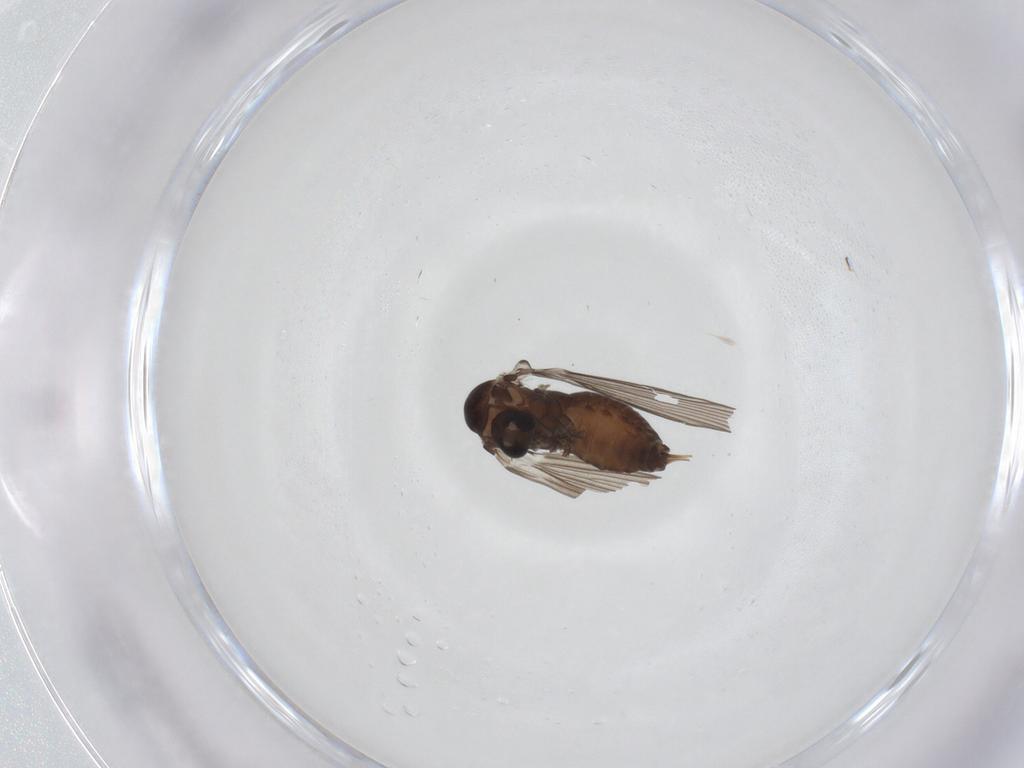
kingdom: Animalia
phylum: Arthropoda
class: Insecta
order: Diptera
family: Psychodidae
